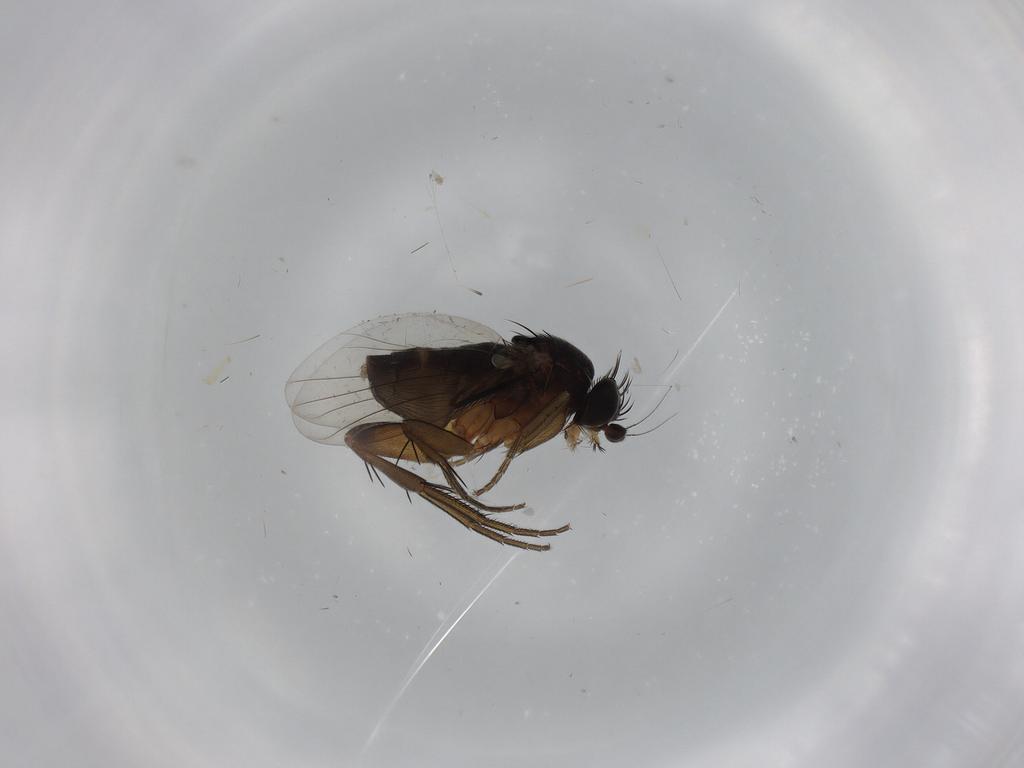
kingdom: Animalia
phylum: Arthropoda
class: Insecta
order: Diptera
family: Phoridae
